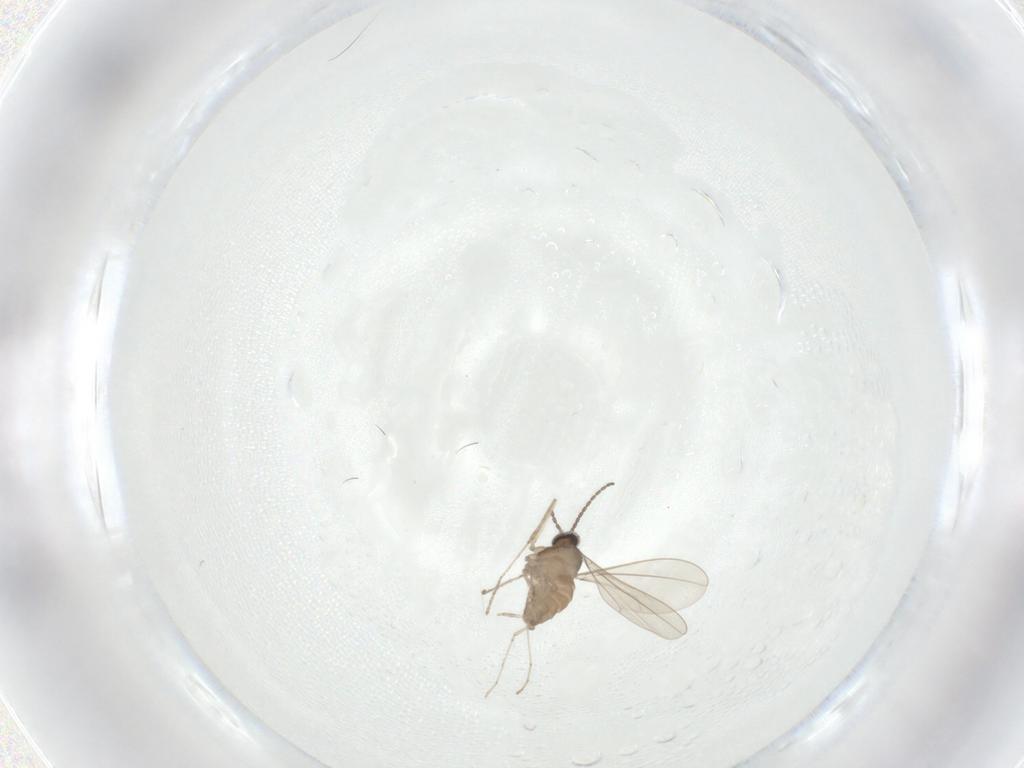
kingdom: Animalia
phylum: Arthropoda
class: Insecta
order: Diptera
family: Cecidomyiidae
